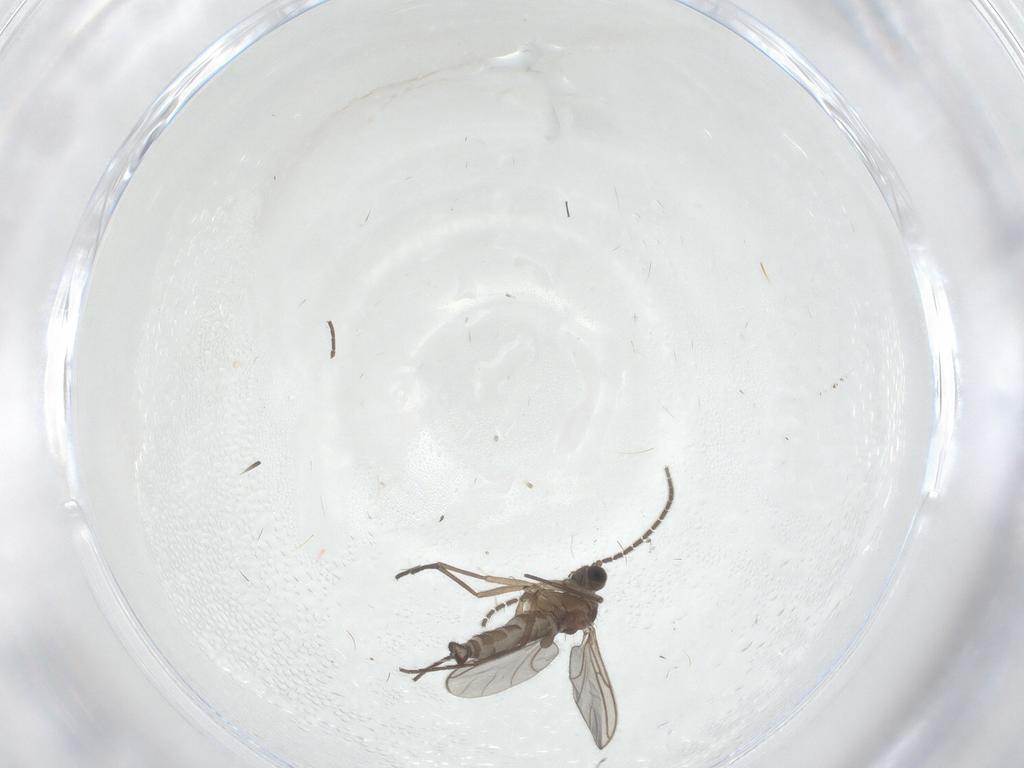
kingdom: Animalia
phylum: Arthropoda
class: Insecta
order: Diptera
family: Sciaridae
